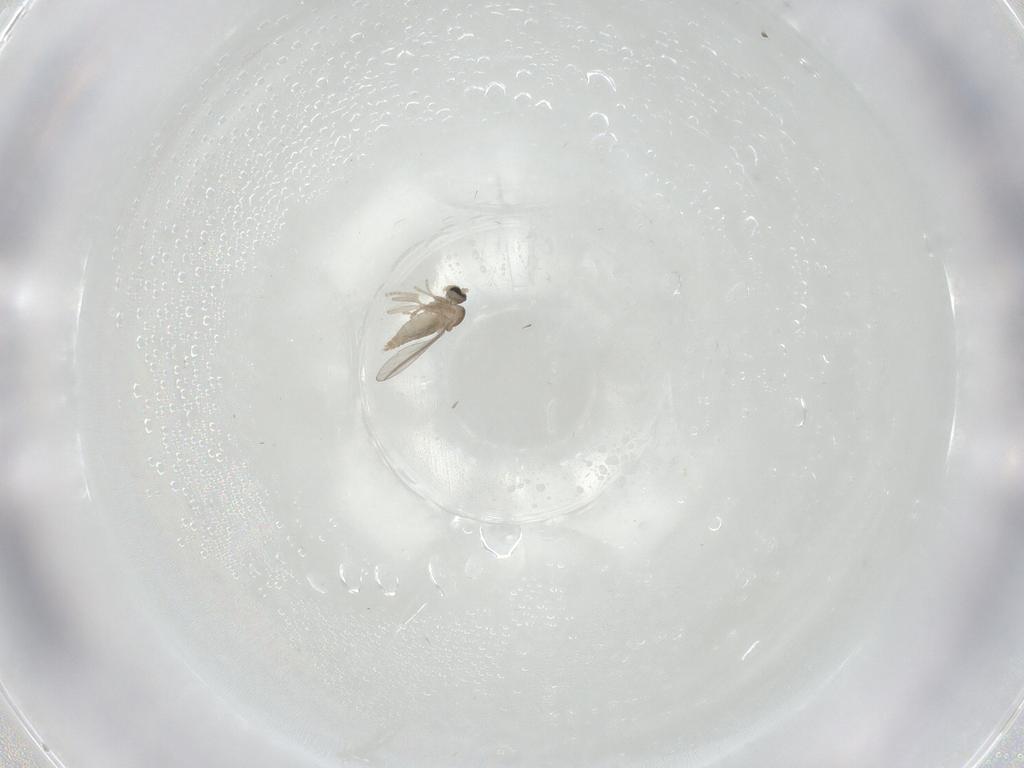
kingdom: Animalia
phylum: Arthropoda
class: Insecta
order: Diptera
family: Cecidomyiidae
